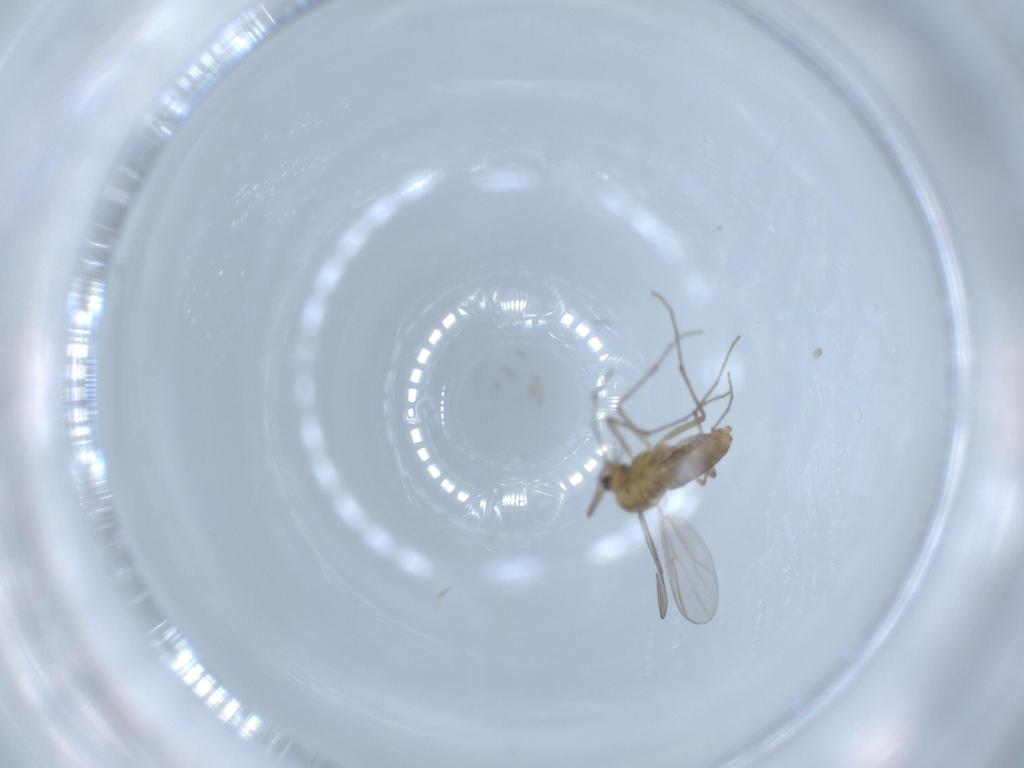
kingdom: Animalia
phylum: Arthropoda
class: Insecta
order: Diptera
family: Chironomidae
